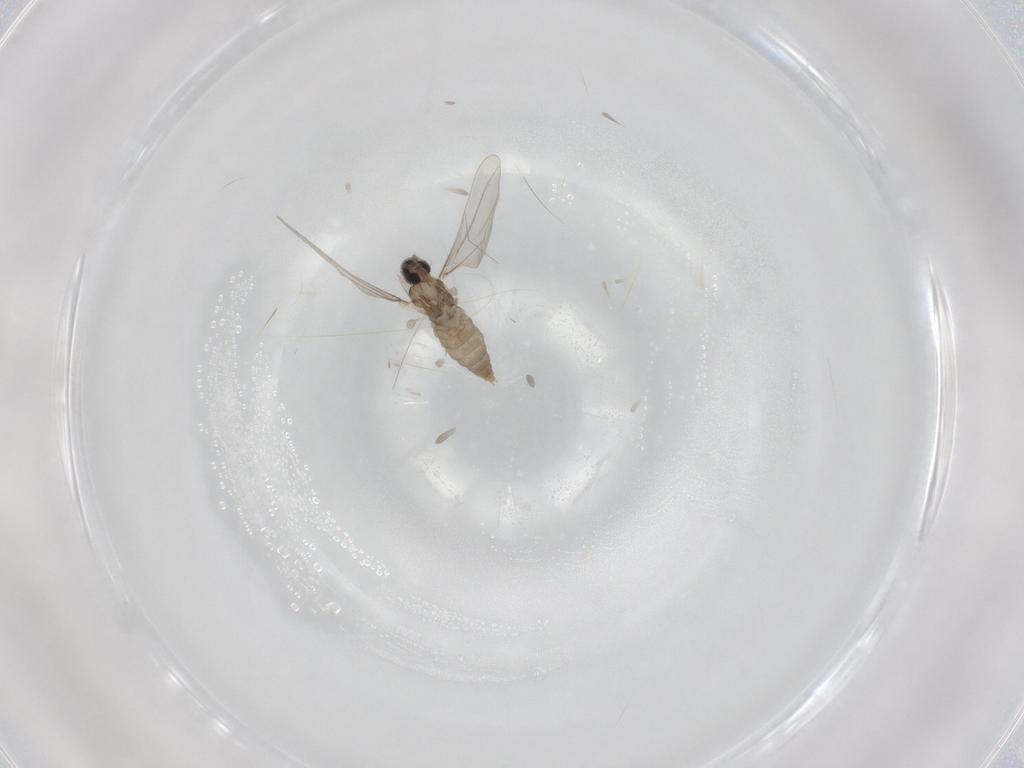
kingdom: Animalia
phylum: Arthropoda
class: Insecta
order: Diptera
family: Cecidomyiidae
